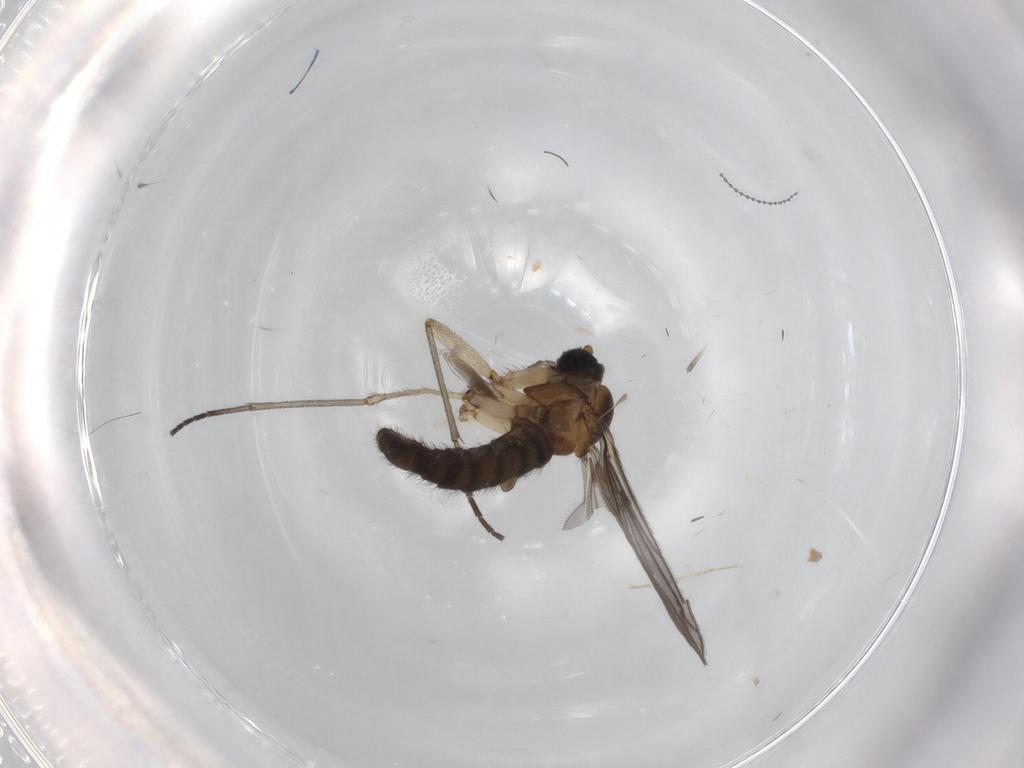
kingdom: Animalia
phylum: Arthropoda
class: Insecta
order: Diptera
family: Sciaridae
